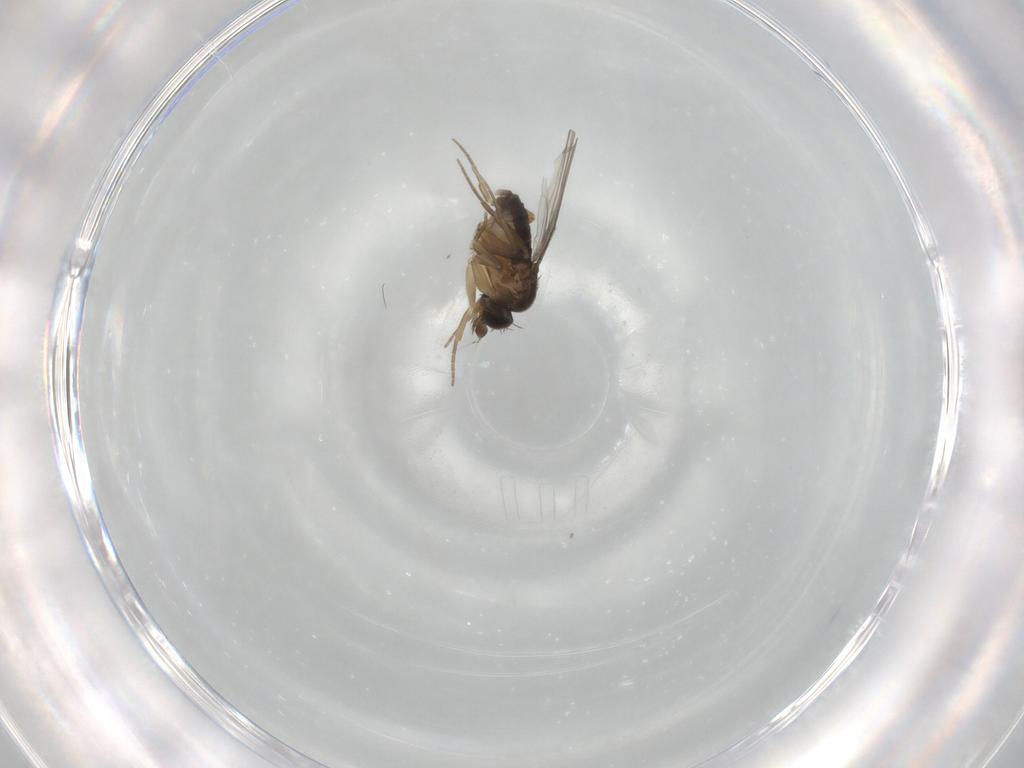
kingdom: Animalia
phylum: Arthropoda
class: Insecta
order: Diptera
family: Phoridae
